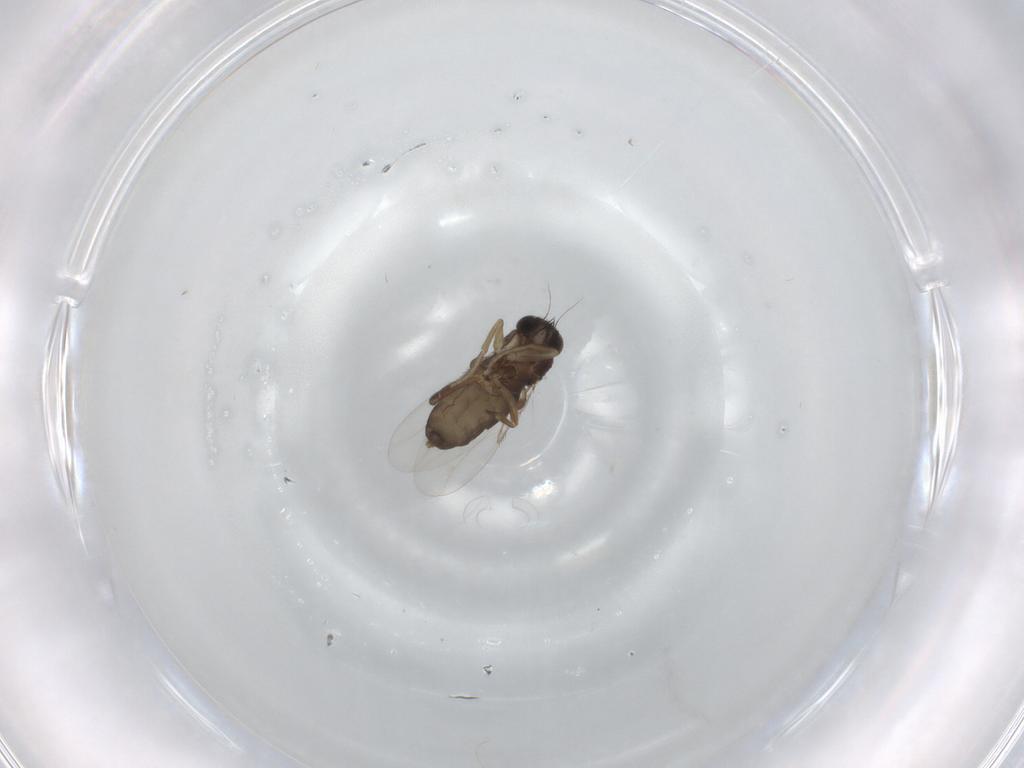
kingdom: Animalia
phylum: Arthropoda
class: Insecta
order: Diptera
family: Phoridae
